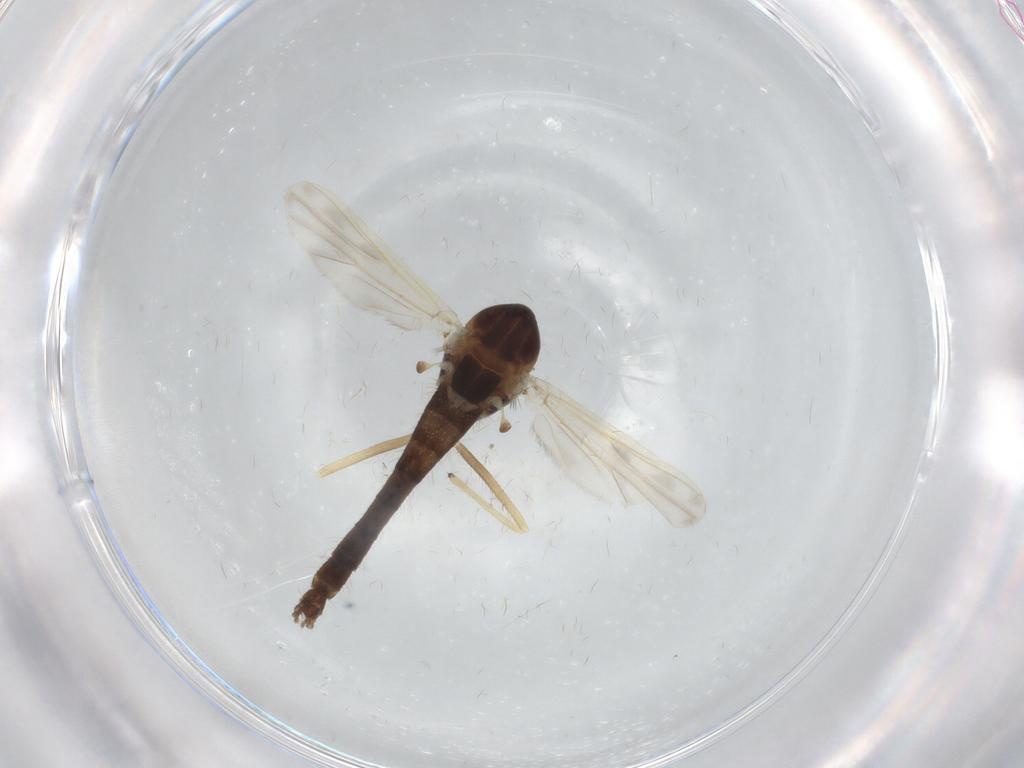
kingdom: Animalia
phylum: Arthropoda
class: Insecta
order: Diptera
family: Chironomidae
